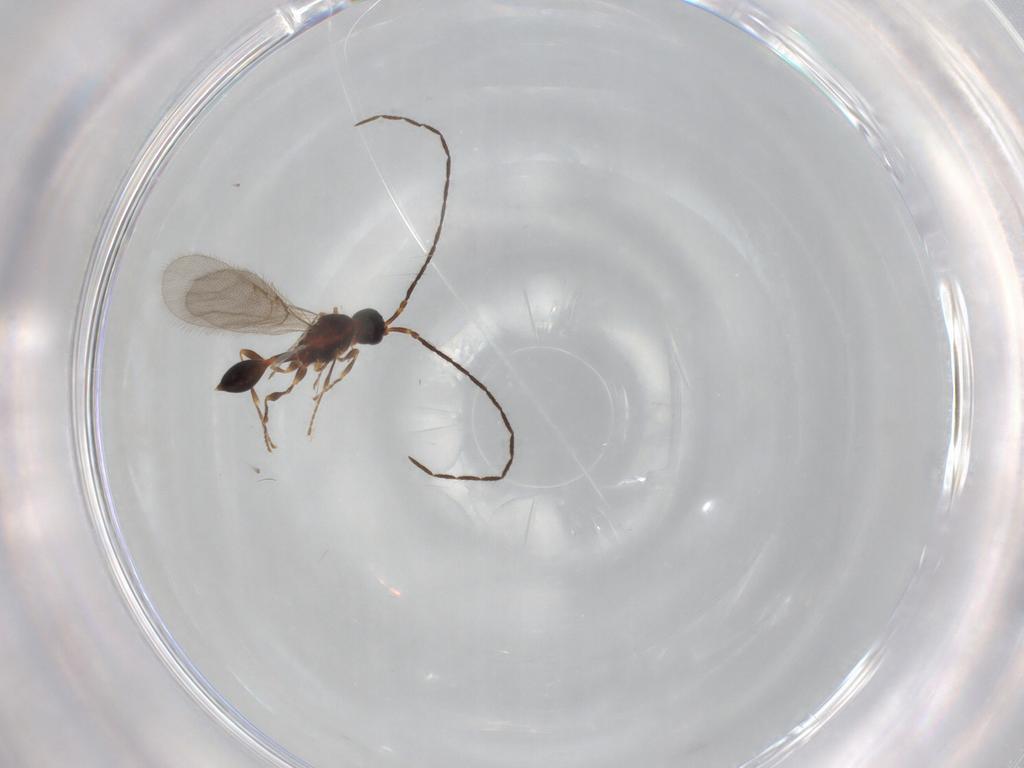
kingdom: Animalia
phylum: Arthropoda
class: Insecta
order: Hymenoptera
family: Diapriidae
